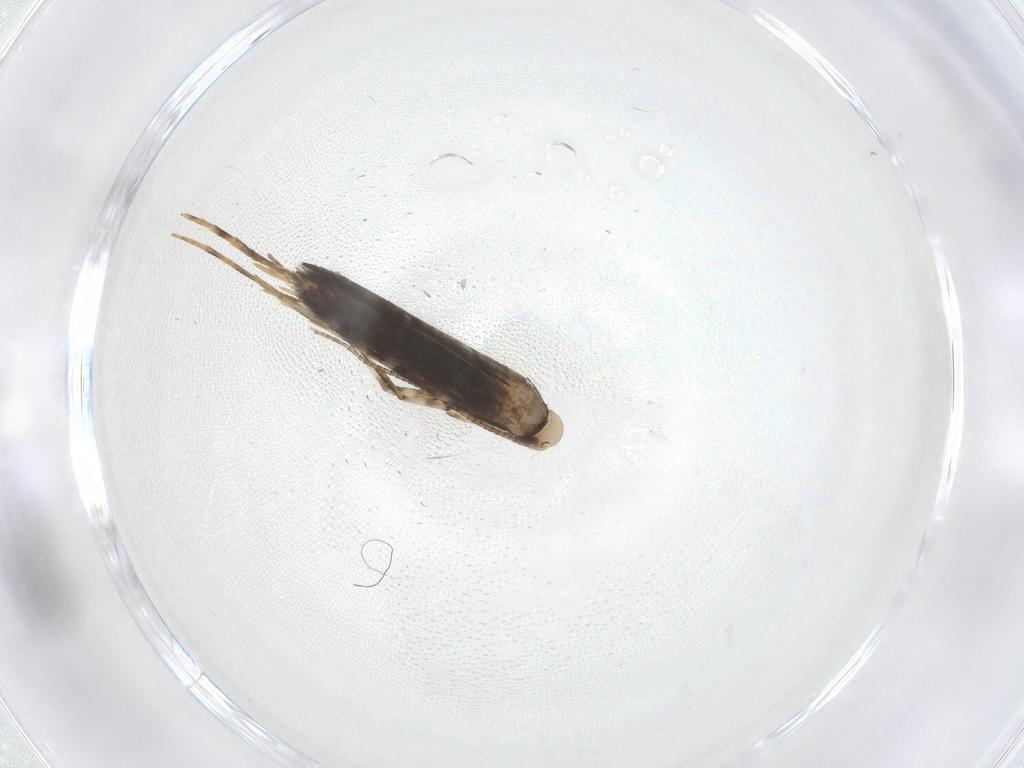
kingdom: Animalia
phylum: Arthropoda
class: Insecta
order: Lepidoptera
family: Gracillariidae
